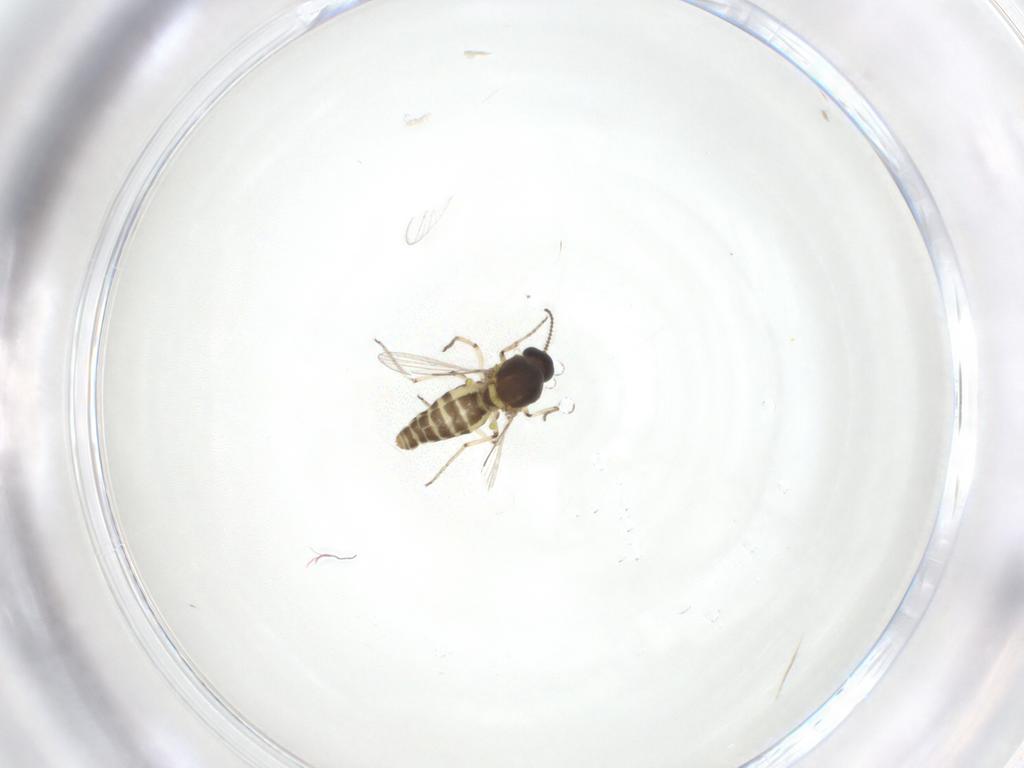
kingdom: Animalia
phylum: Arthropoda
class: Insecta
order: Diptera
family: Ceratopogonidae
